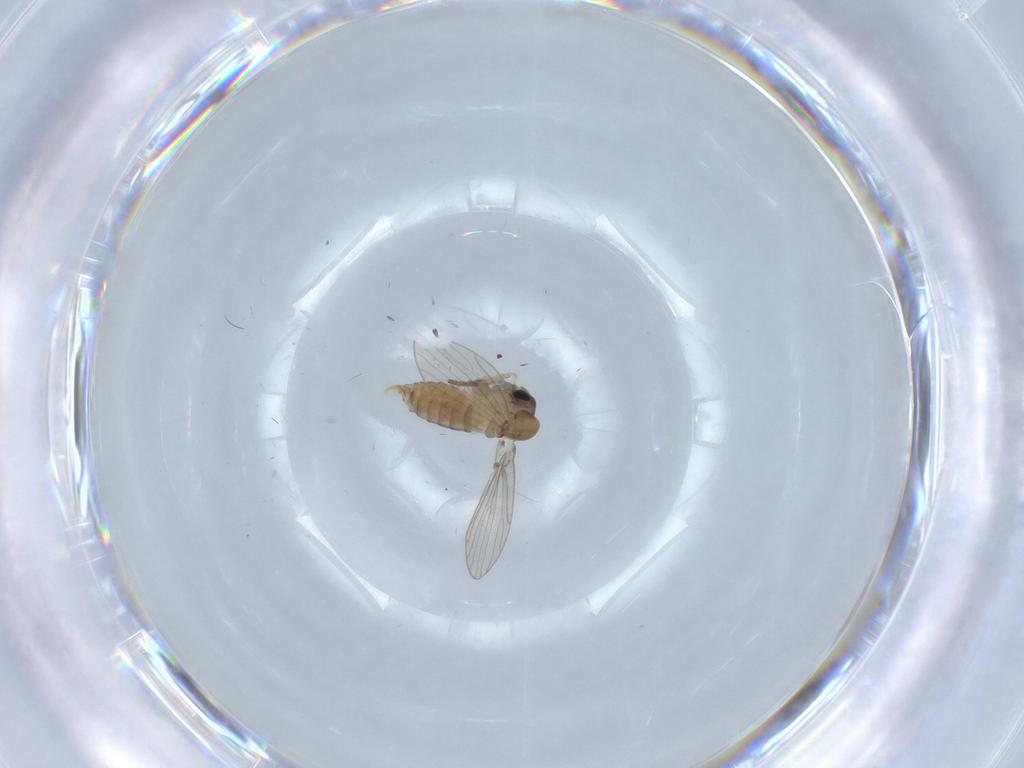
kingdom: Animalia
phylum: Arthropoda
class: Insecta
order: Diptera
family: Psychodidae
